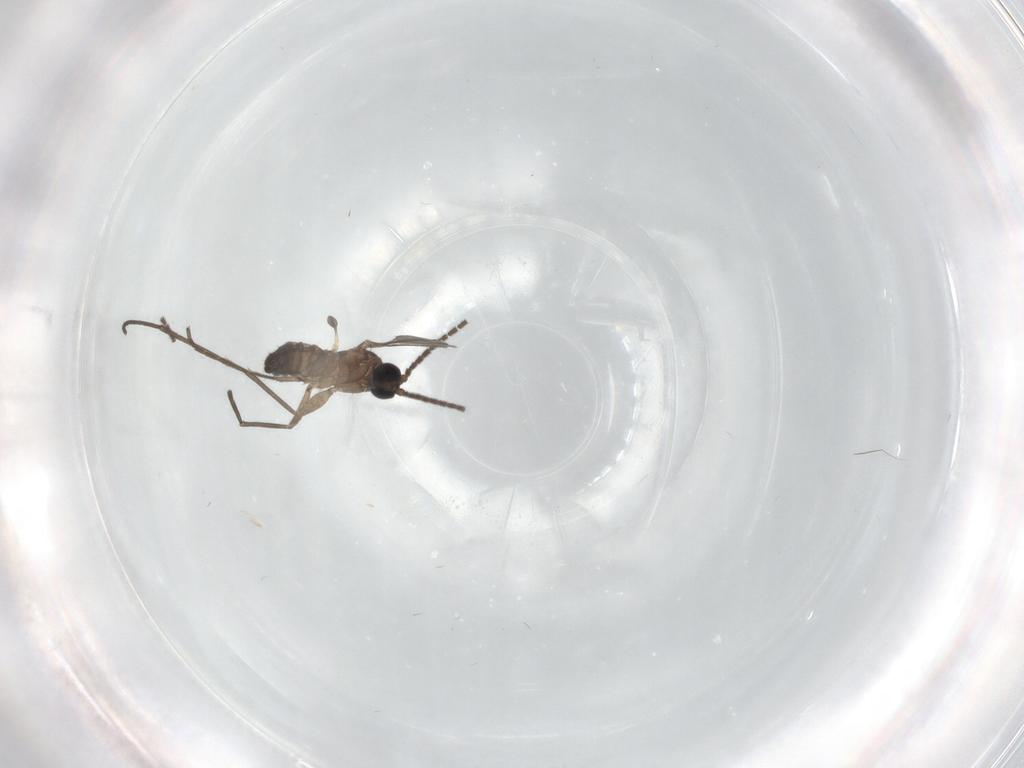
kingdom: Animalia
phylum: Arthropoda
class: Insecta
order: Diptera
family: Sciaridae
